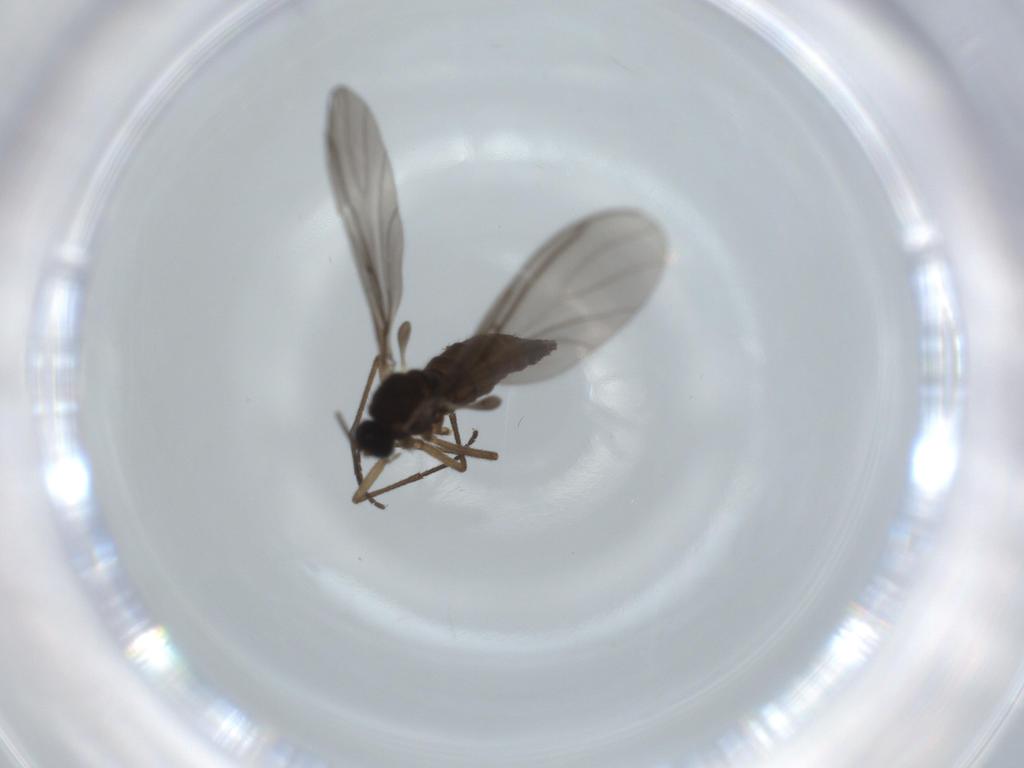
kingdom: Animalia
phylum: Arthropoda
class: Insecta
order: Diptera
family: Sciaridae
